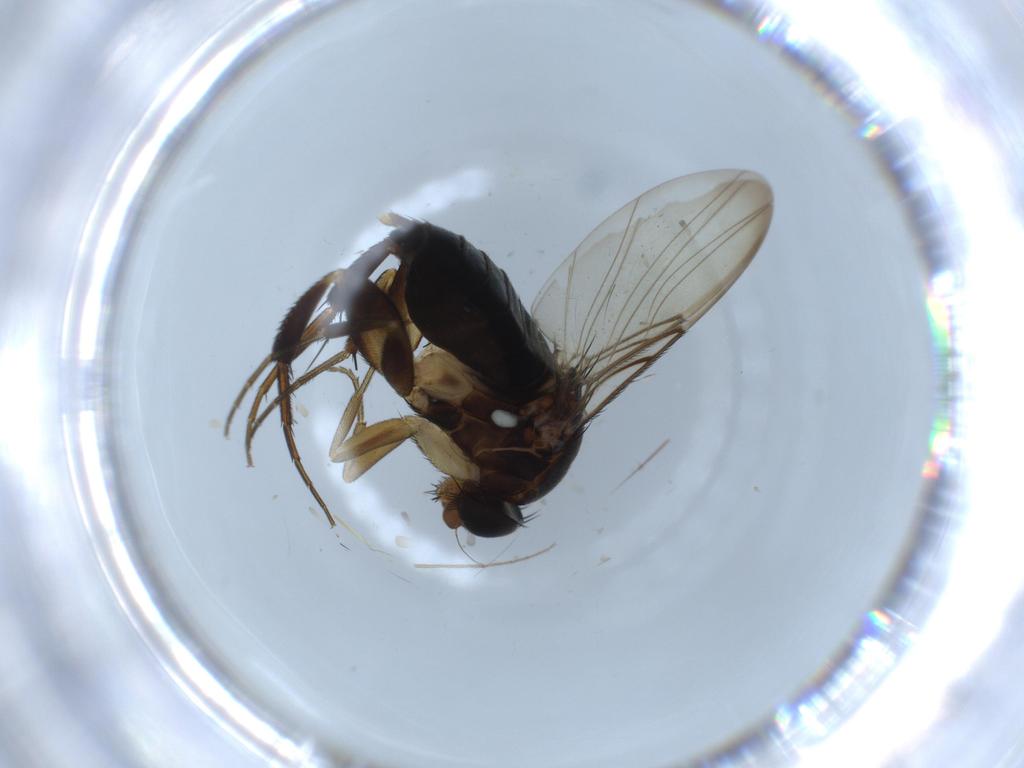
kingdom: Animalia
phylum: Arthropoda
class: Insecta
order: Diptera
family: Phoridae
